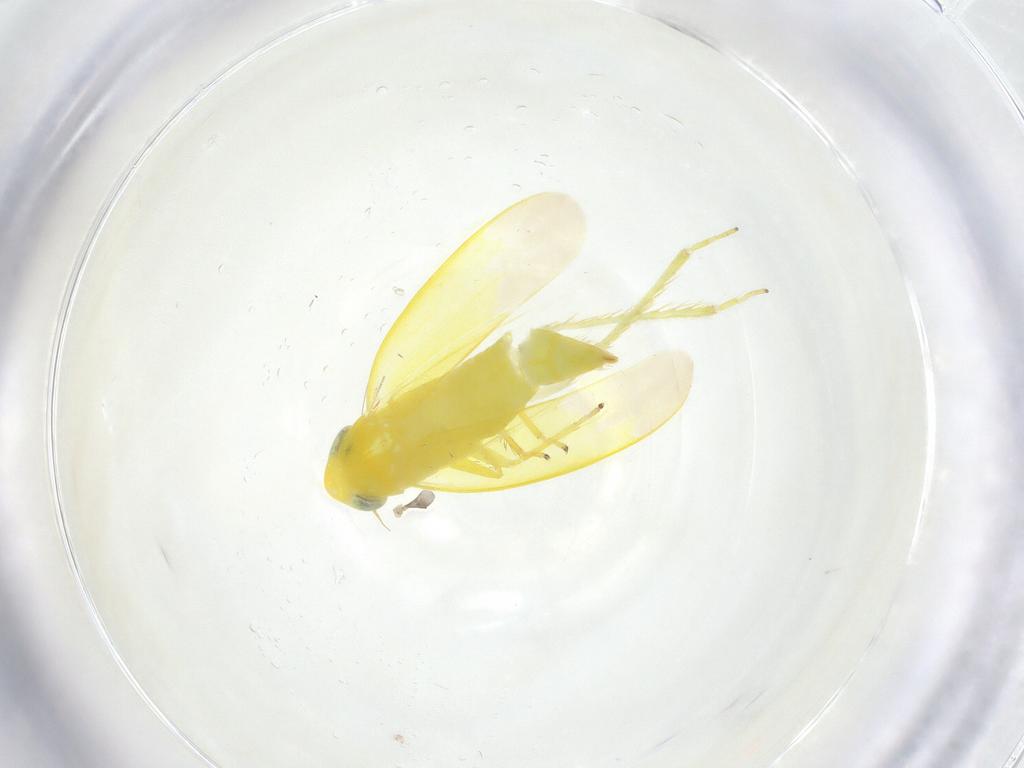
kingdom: Animalia
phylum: Arthropoda
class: Insecta
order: Hemiptera
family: Cicadellidae
